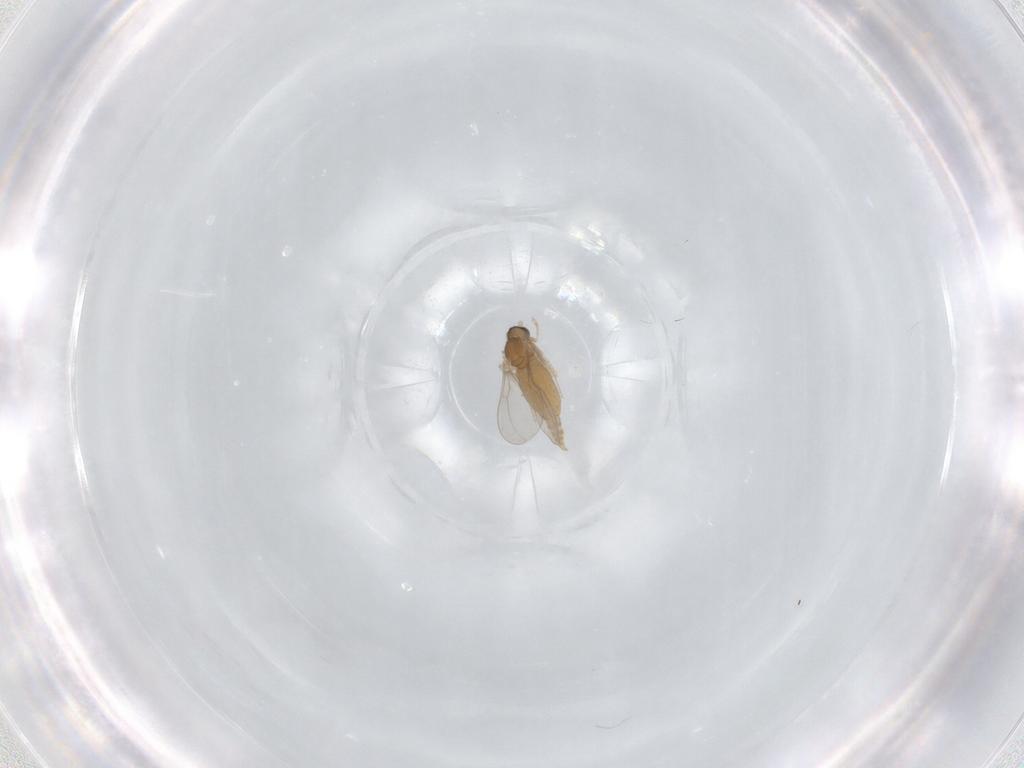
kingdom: Animalia
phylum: Arthropoda
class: Insecta
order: Diptera
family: Cecidomyiidae
